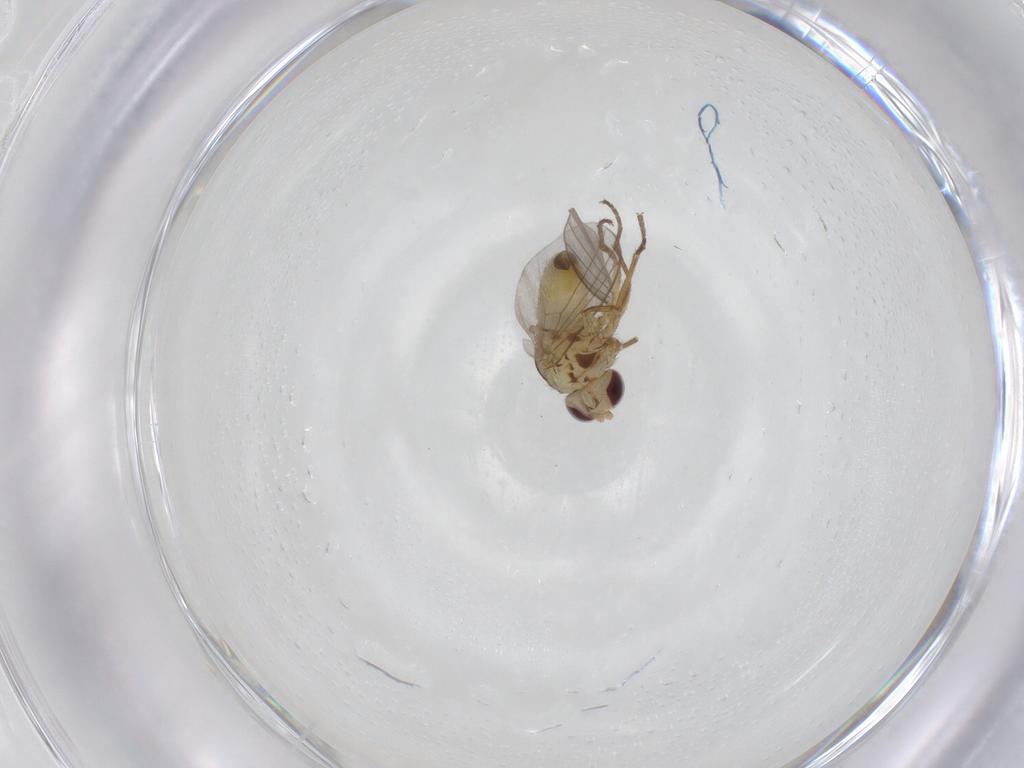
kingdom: Animalia
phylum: Arthropoda
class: Insecta
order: Diptera
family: Agromyzidae
